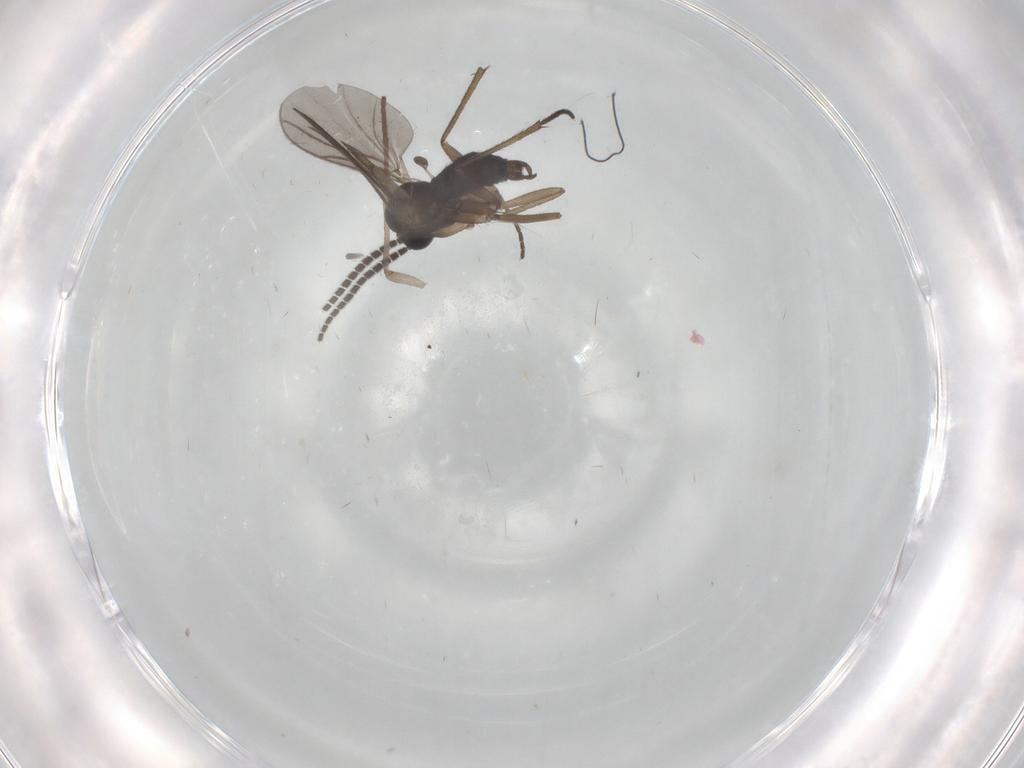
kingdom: Animalia
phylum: Arthropoda
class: Insecta
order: Diptera
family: Sciaridae
